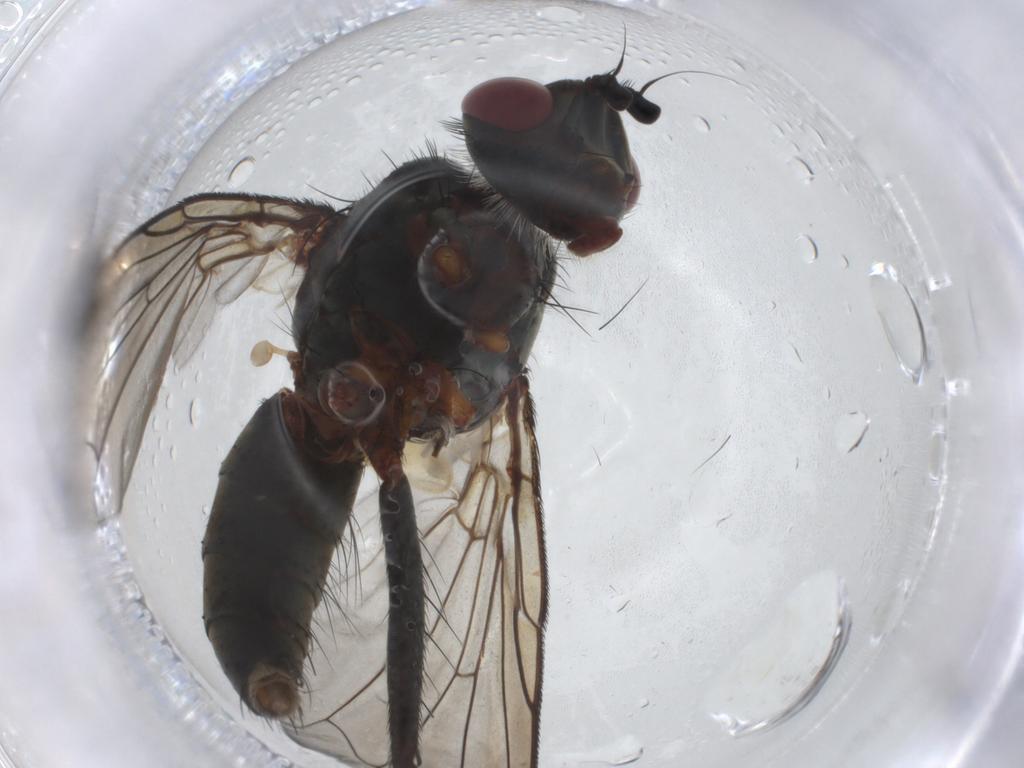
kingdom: Animalia
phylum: Arthropoda
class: Insecta
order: Diptera
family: Tachinidae
